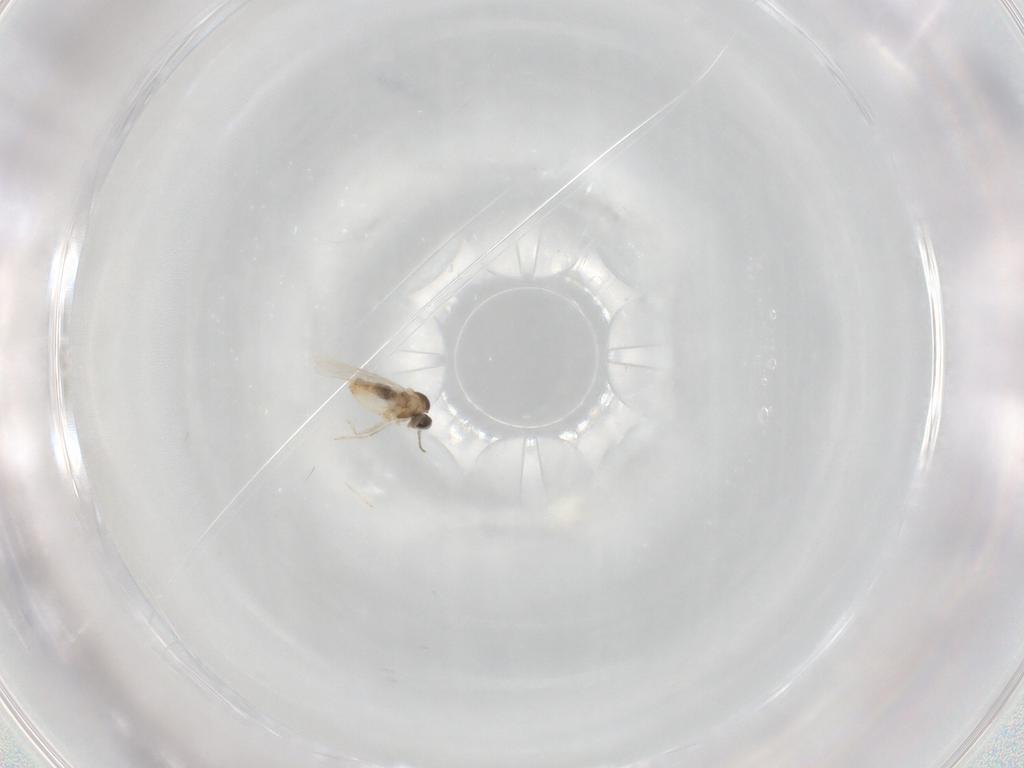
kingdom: Animalia
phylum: Arthropoda
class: Insecta
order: Diptera
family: Cecidomyiidae
